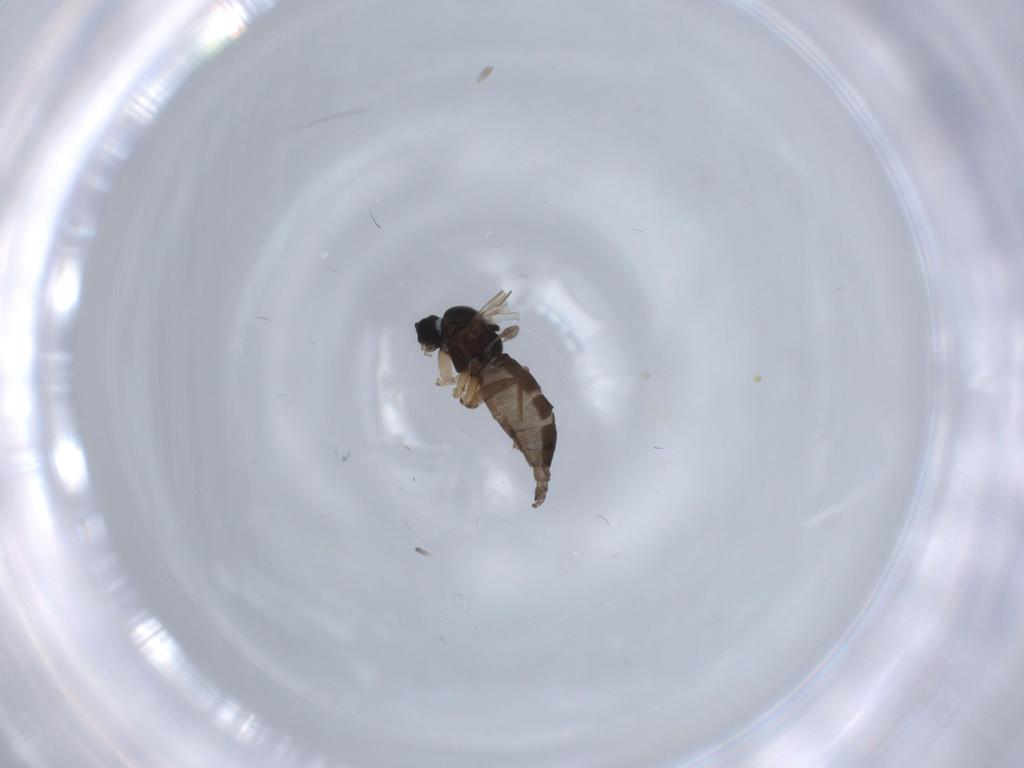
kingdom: Animalia
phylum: Arthropoda
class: Insecta
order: Diptera
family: Sciaridae
